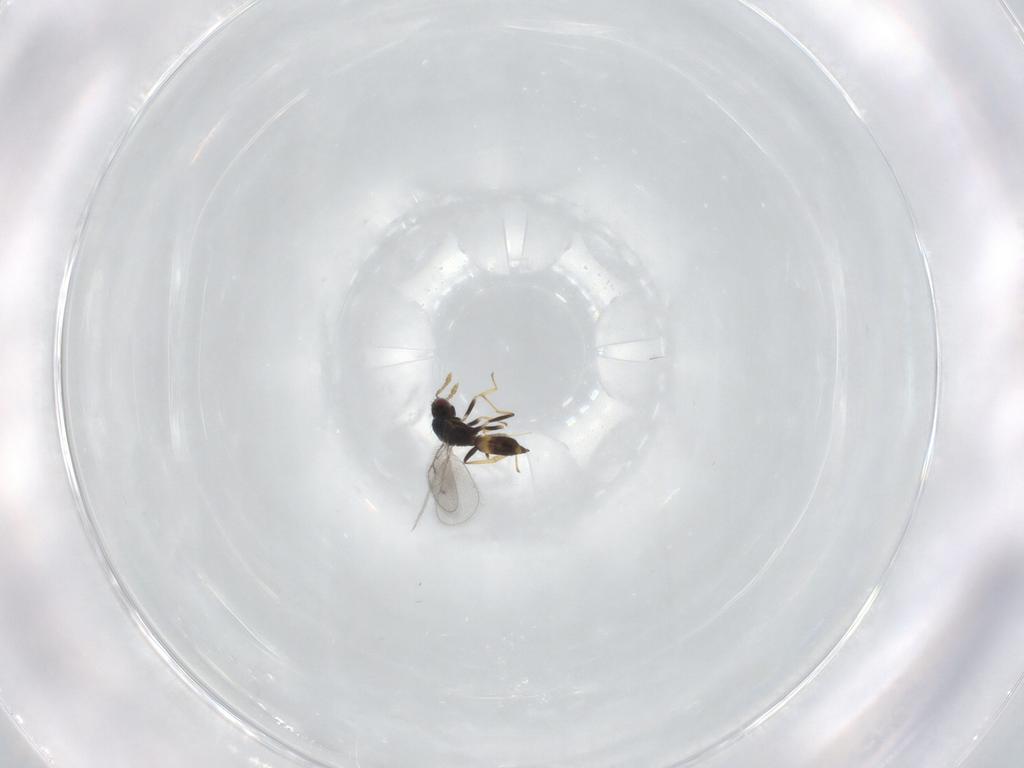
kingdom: Animalia
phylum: Arthropoda
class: Insecta
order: Hymenoptera
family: Eulophidae
